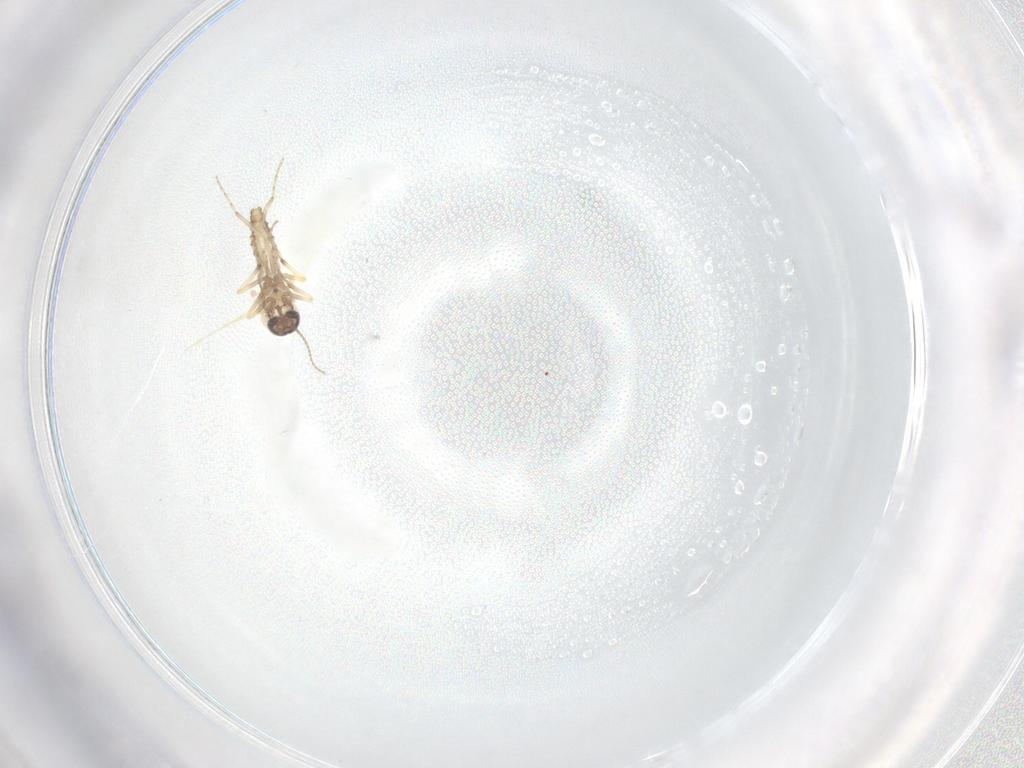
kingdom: Animalia
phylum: Arthropoda
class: Insecta
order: Diptera
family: Ceratopogonidae
